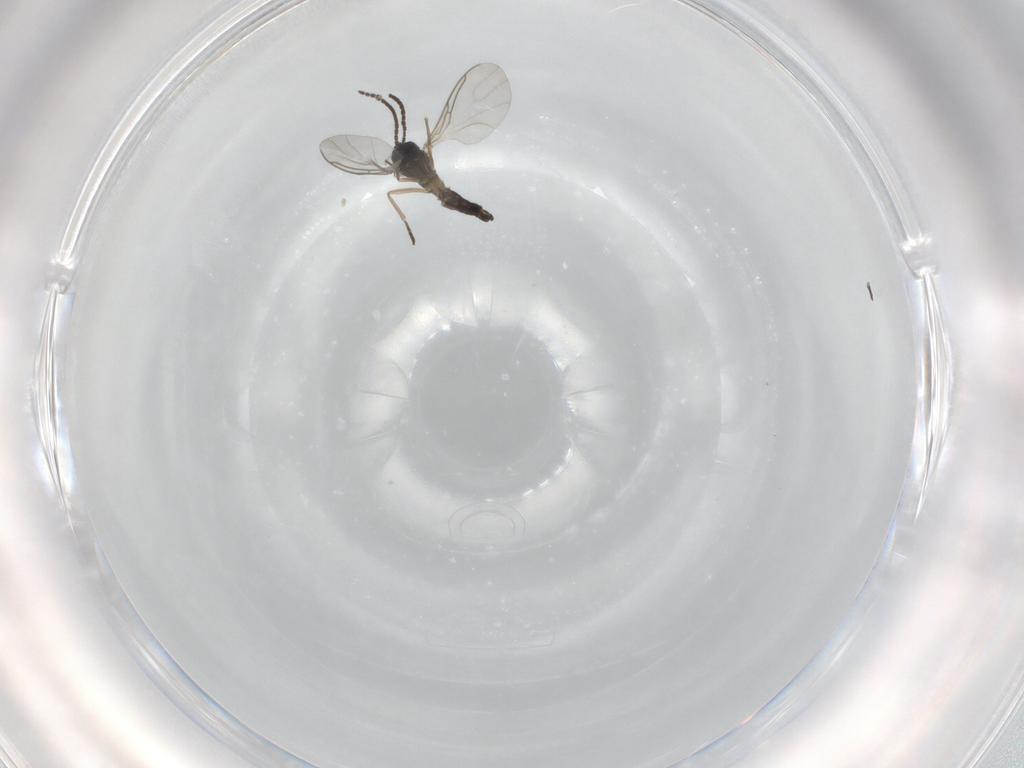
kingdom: Animalia
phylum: Arthropoda
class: Insecta
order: Diptera
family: Sciaridae
